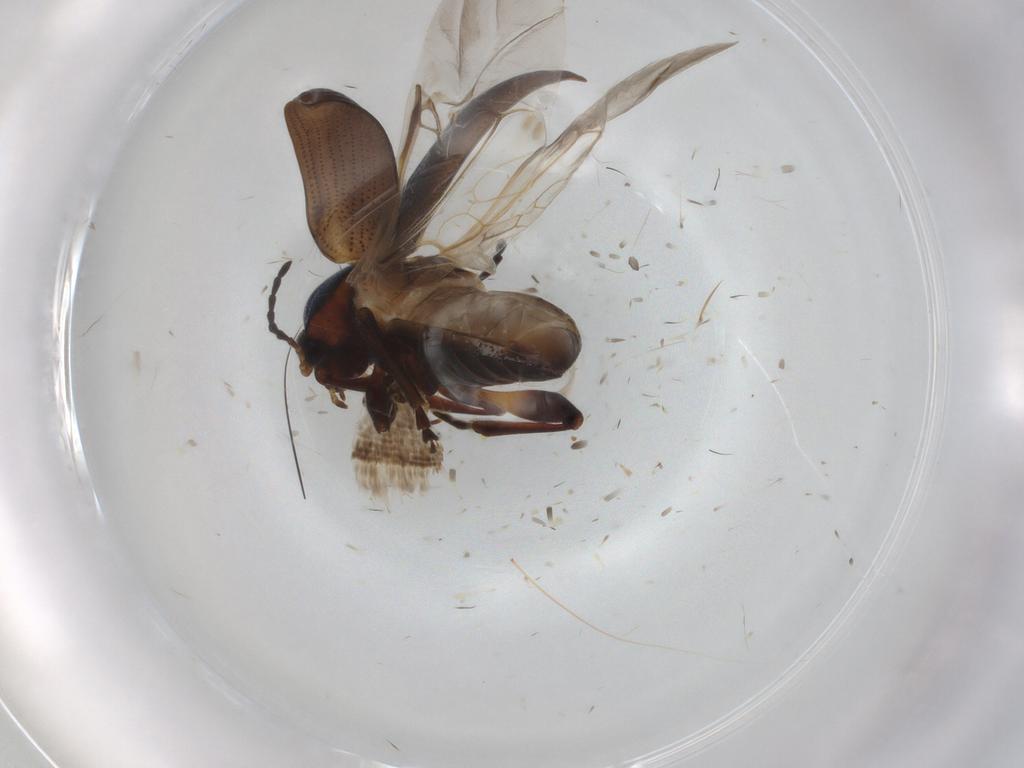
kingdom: Animalia
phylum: Arthropoda
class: Insecta
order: Coleoptera
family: Chrysomelidae
